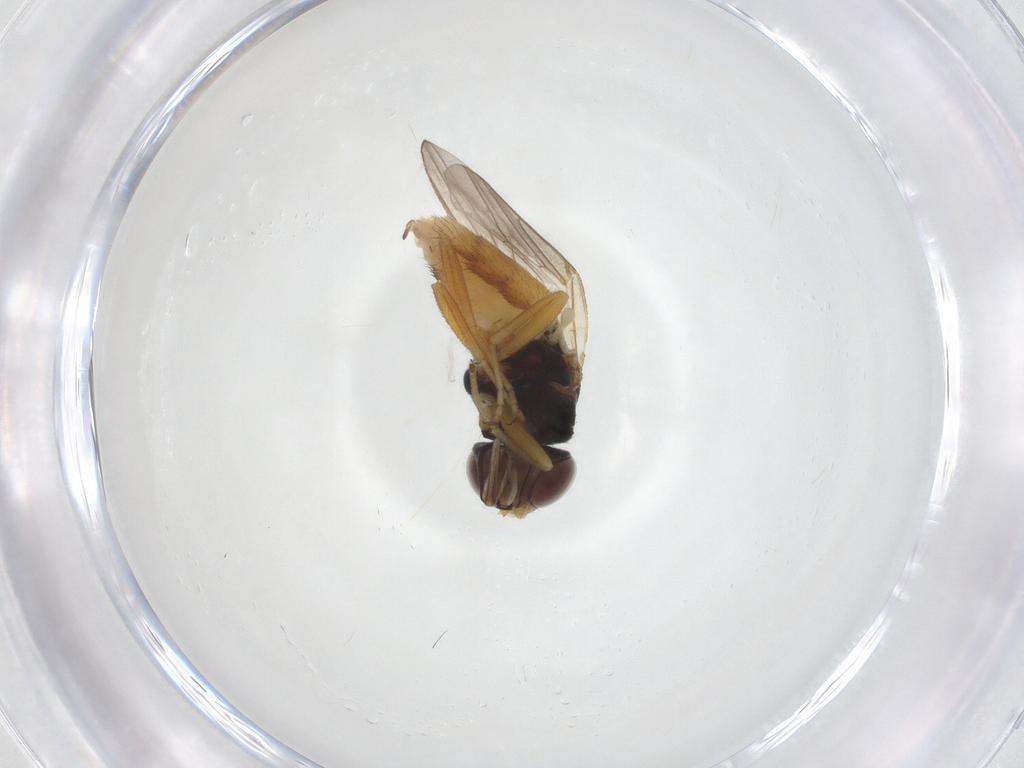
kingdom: Animalia
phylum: Arthropoda
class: Insecta
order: Diptera
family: Chloropidae
